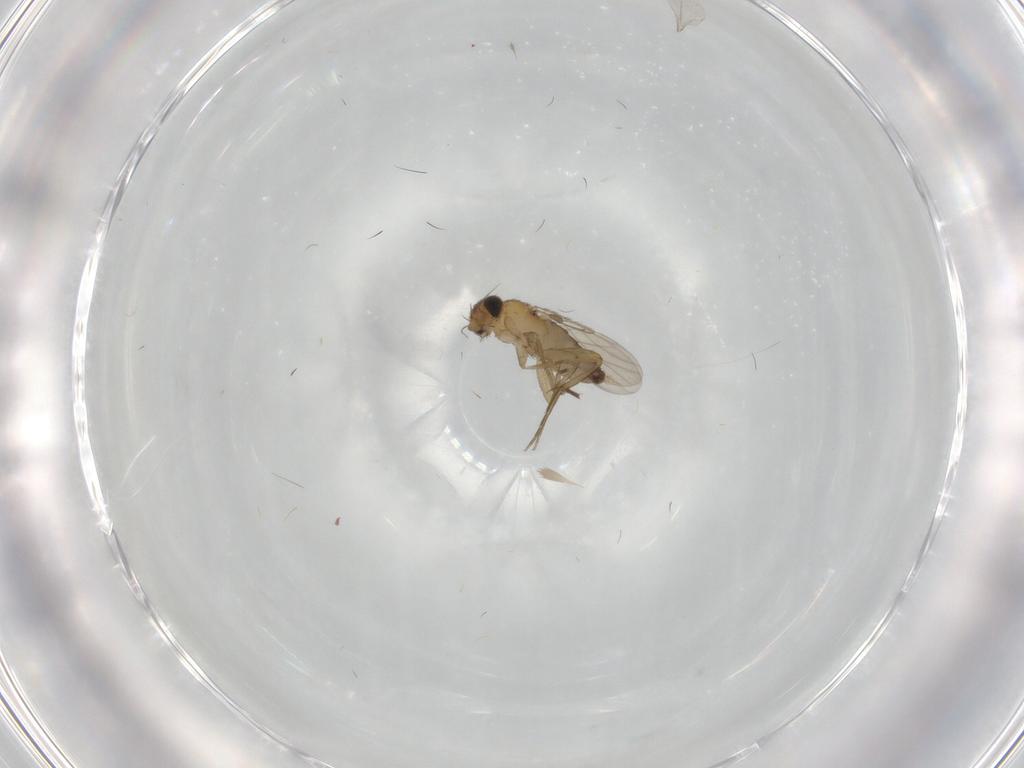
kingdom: Animalia
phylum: Arthropoda
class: Insecta
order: Diptera
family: Phoridae
